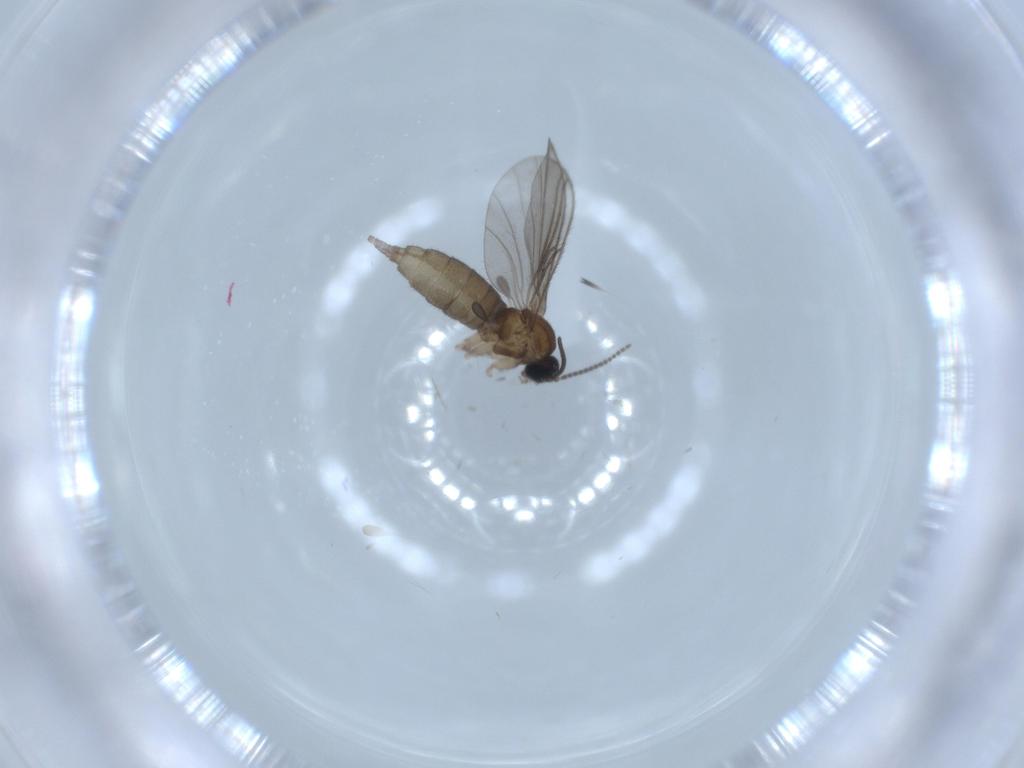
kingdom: Animalia
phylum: Arthropoda
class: Insecta
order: Diptera
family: Sciaridae
